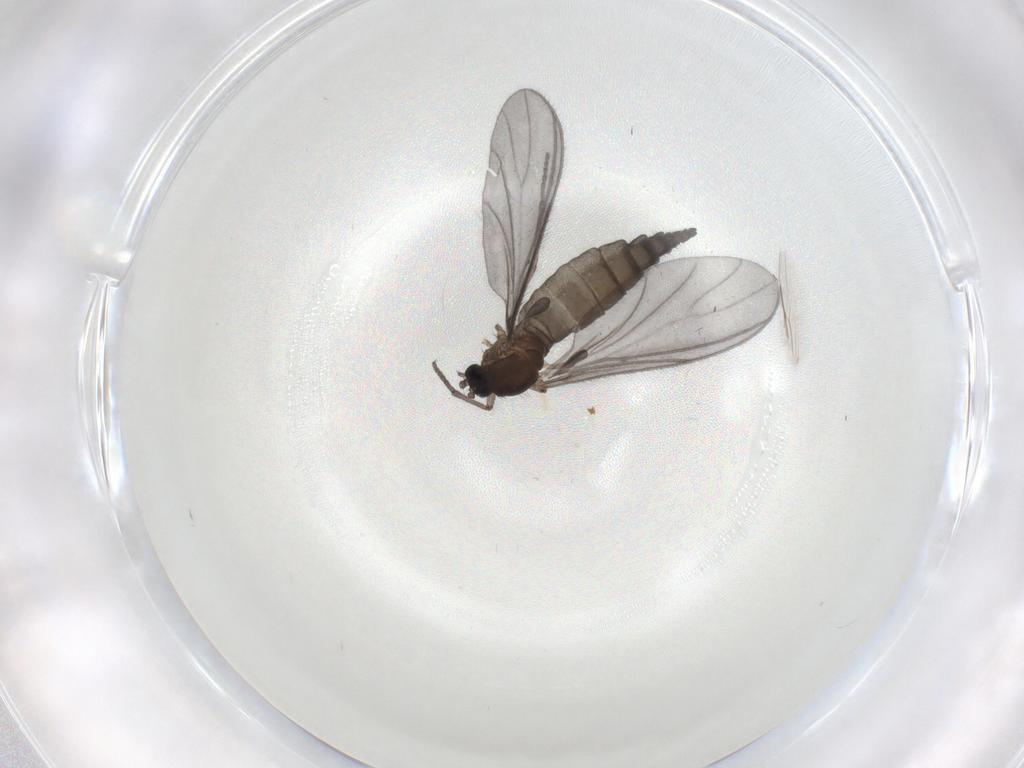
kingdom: Animalia
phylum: Arthropoda
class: Insecta
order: Diptera
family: Sciaridae
